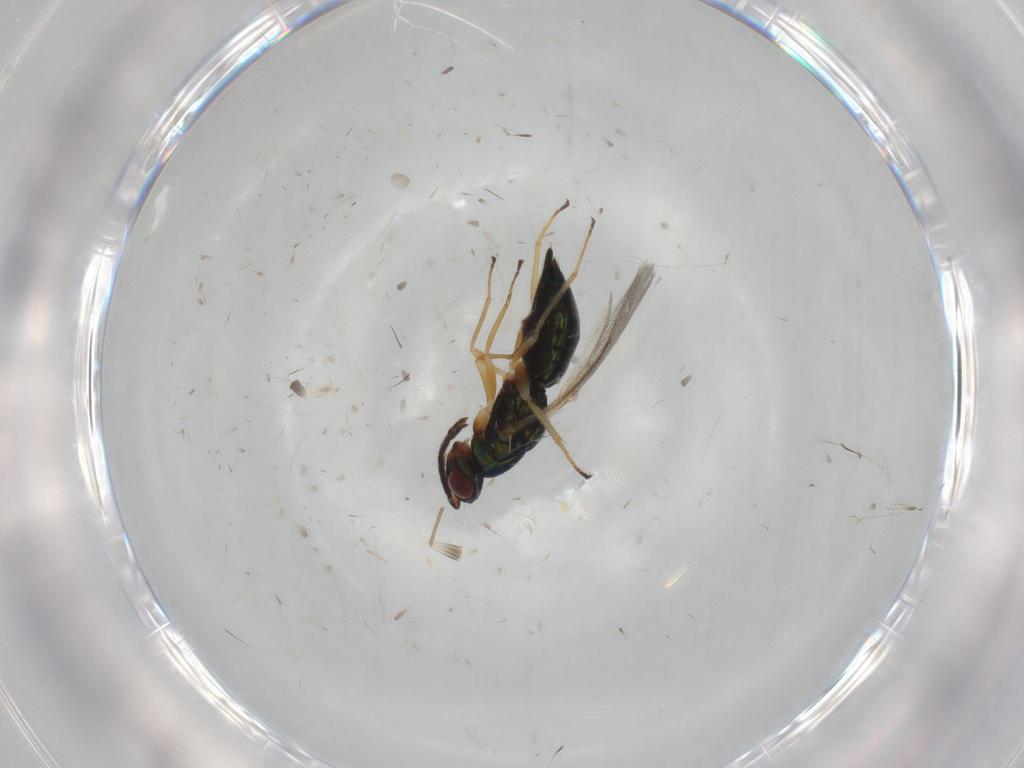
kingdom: Animalia
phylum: Arthropoda
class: Insecta
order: Hymenoptera
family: Eulophidae
